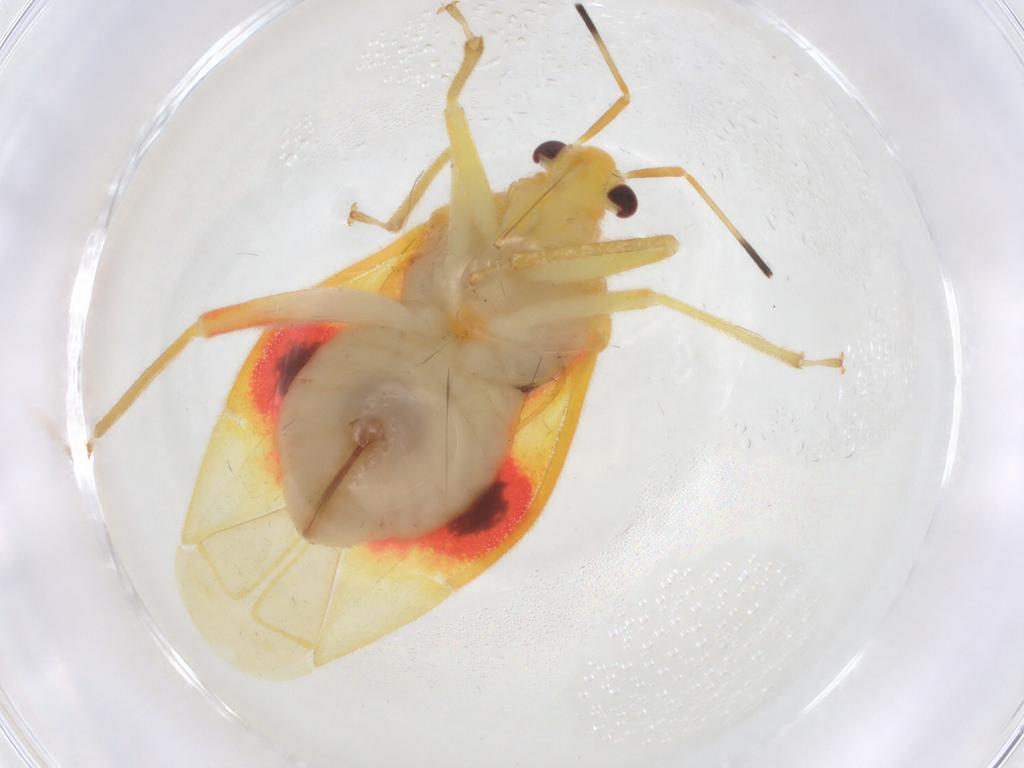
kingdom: Animalia
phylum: Arthropoda
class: Insecta
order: Hemiptera
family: Miridae
